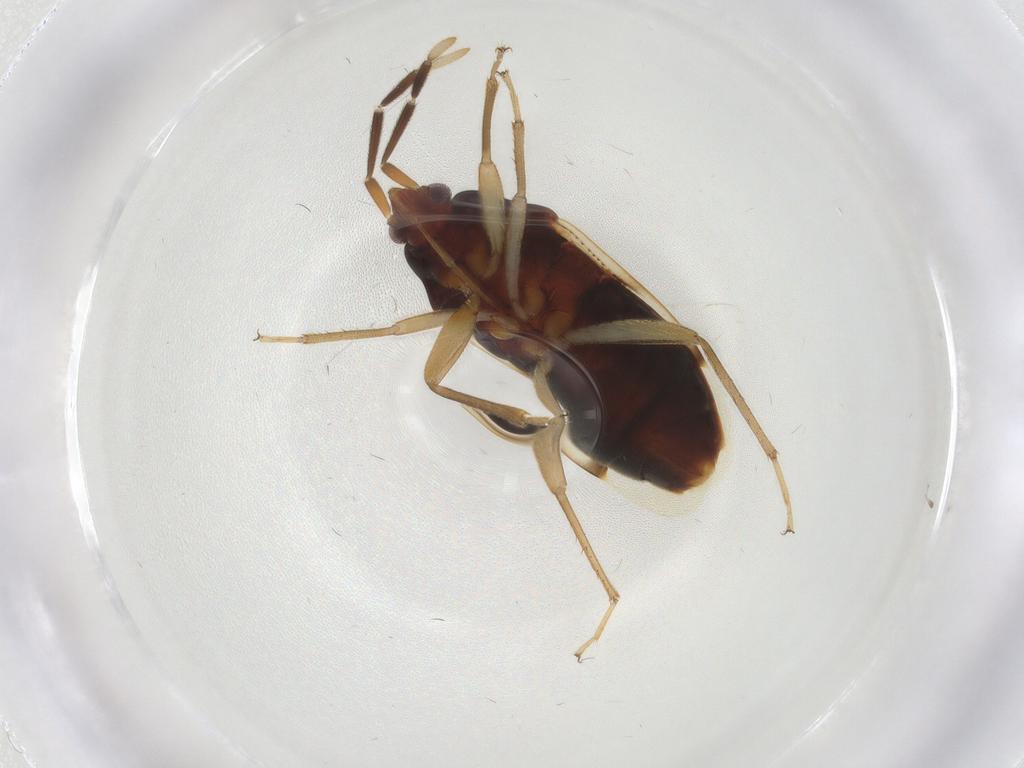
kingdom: Animalia
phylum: Arthropoda
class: Insecta
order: Hemiptera
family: Rhyparochromidae
